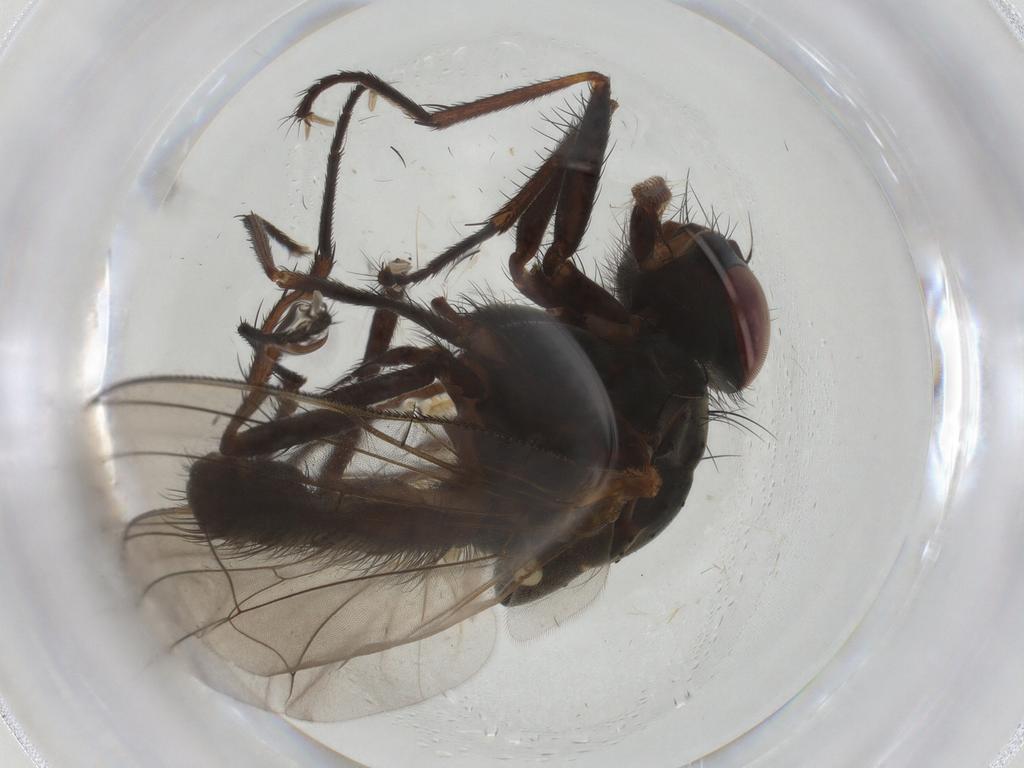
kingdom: Animalia
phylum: Arthropoda
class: Insecta
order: Diptera
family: Anthomyiidae
